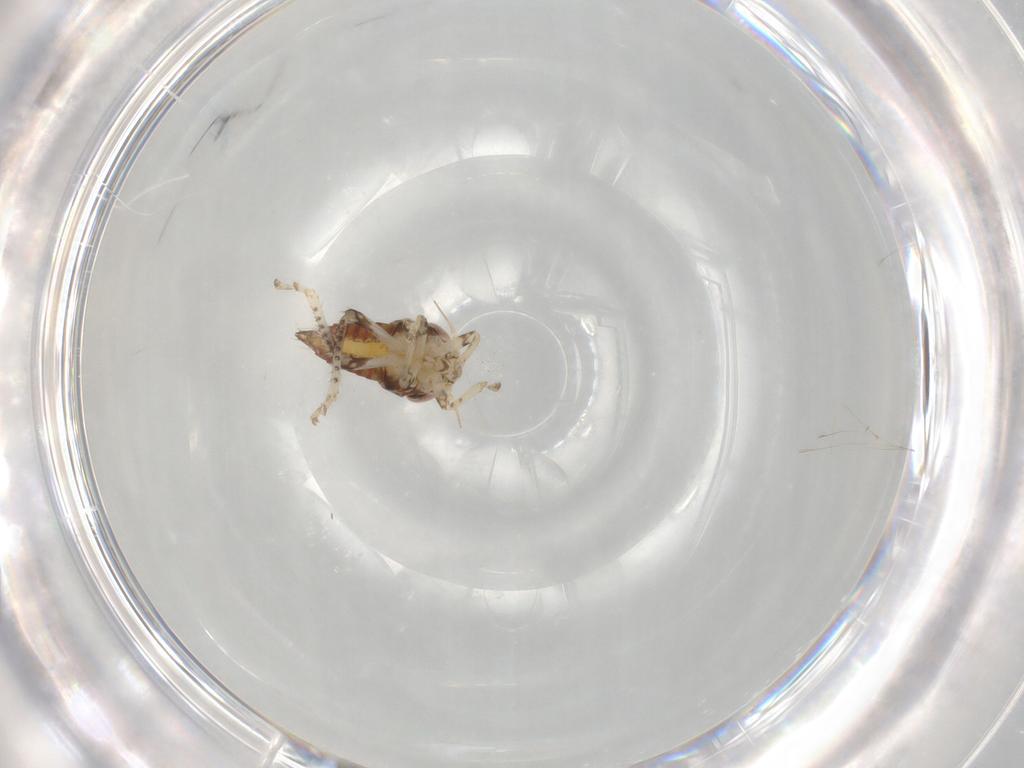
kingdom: Animalia
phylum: Arthropoda
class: Insecta
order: Hemiptera
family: Cicadellidae
